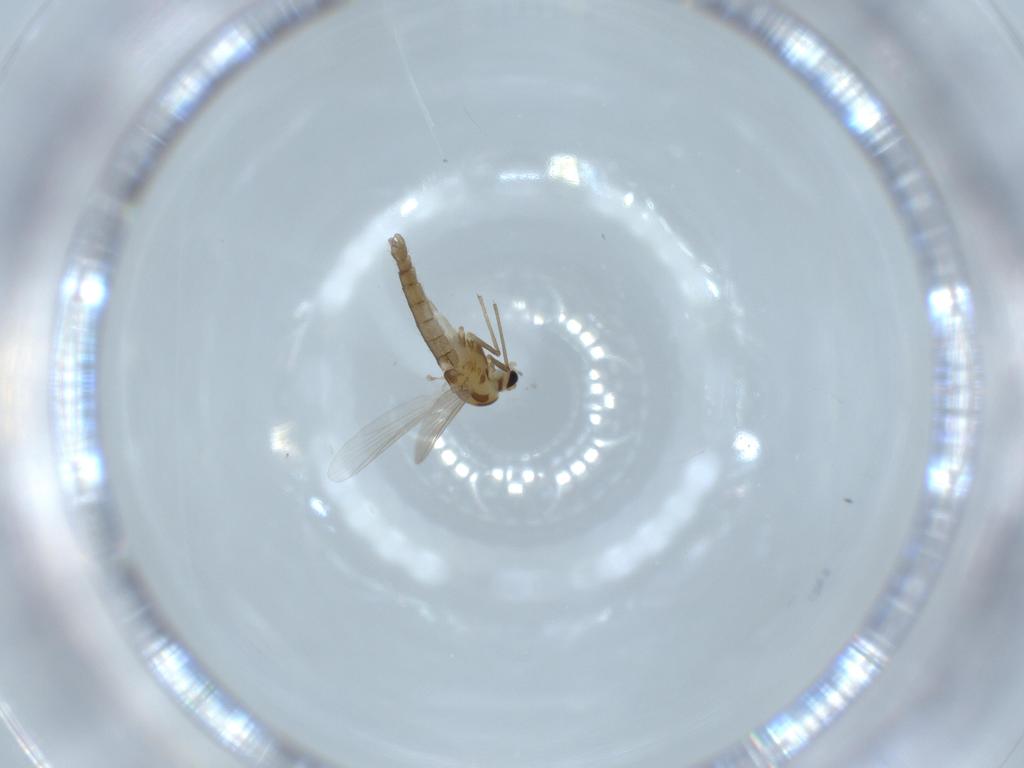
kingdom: Animalia
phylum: Arthropoda
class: Insecta
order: Diptera
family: Chironomidae
